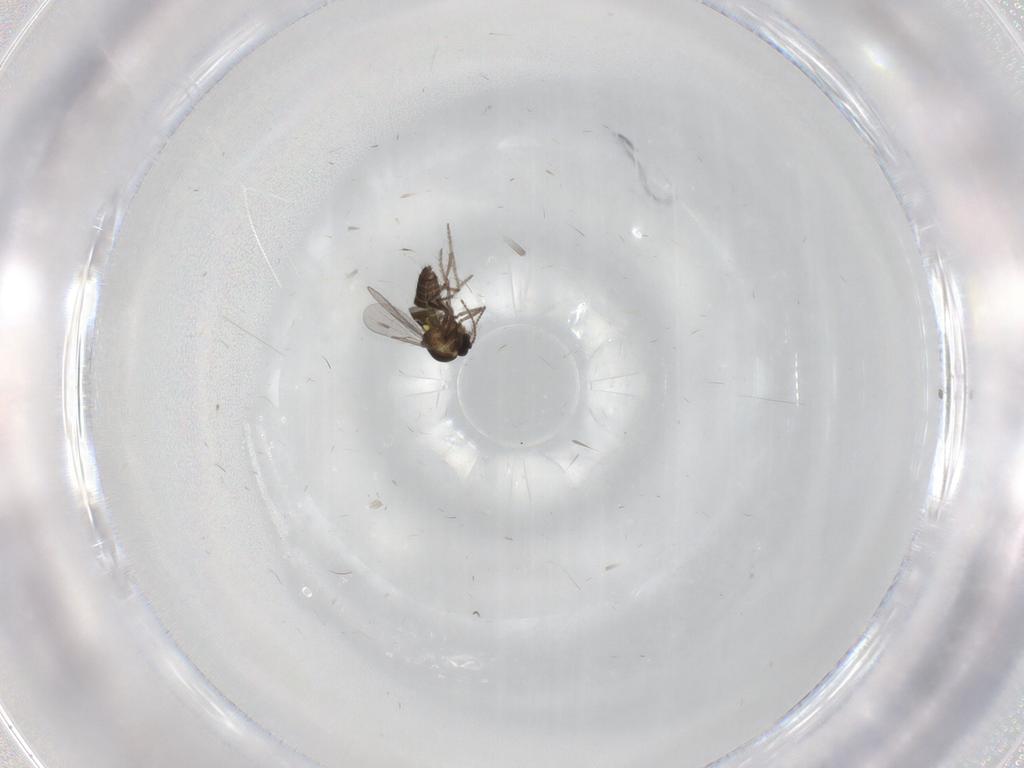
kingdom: Animalia
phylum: Arthropoda
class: Insecta
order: Diptera
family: Ceratopogonidae
